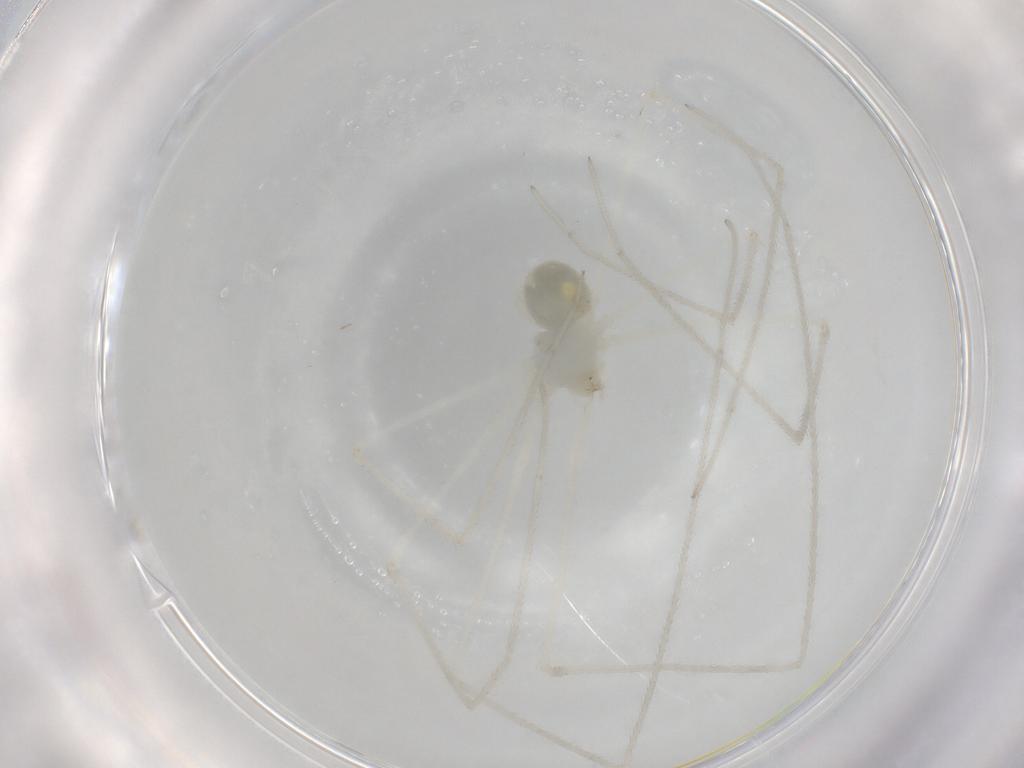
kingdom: Animalia
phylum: Arthropoda
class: Arachnida
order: Araneae
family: Pholcidae
